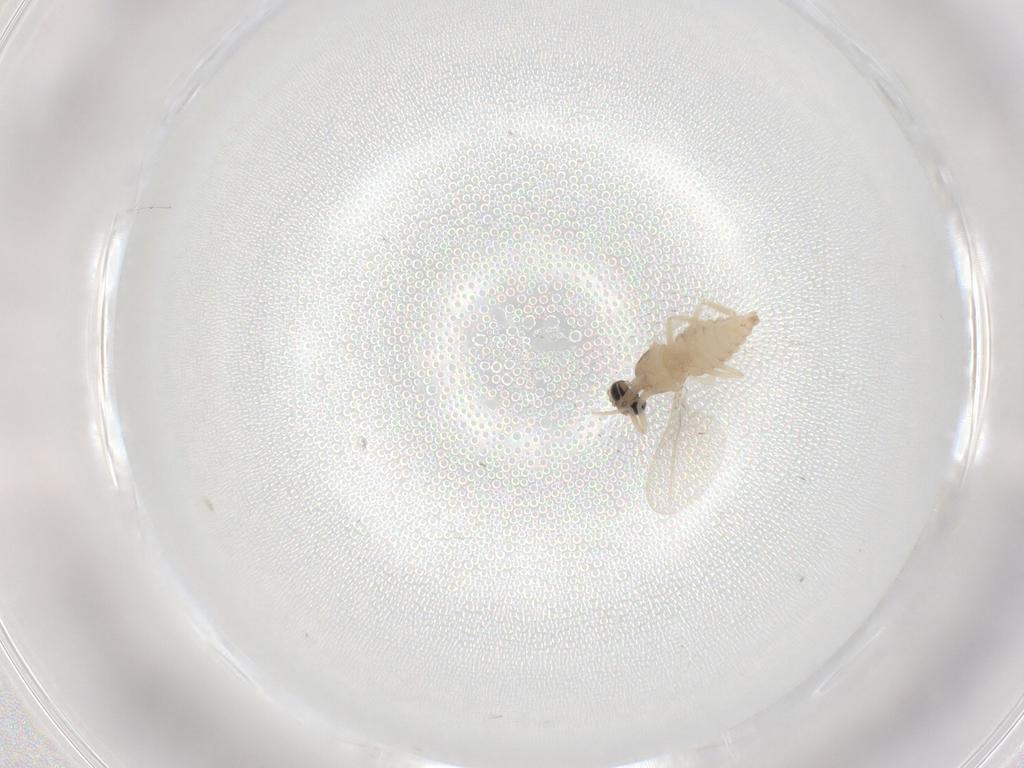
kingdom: Animalia
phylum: Arthropoda
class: Insecta
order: Diptera
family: Cecidomyiidae
